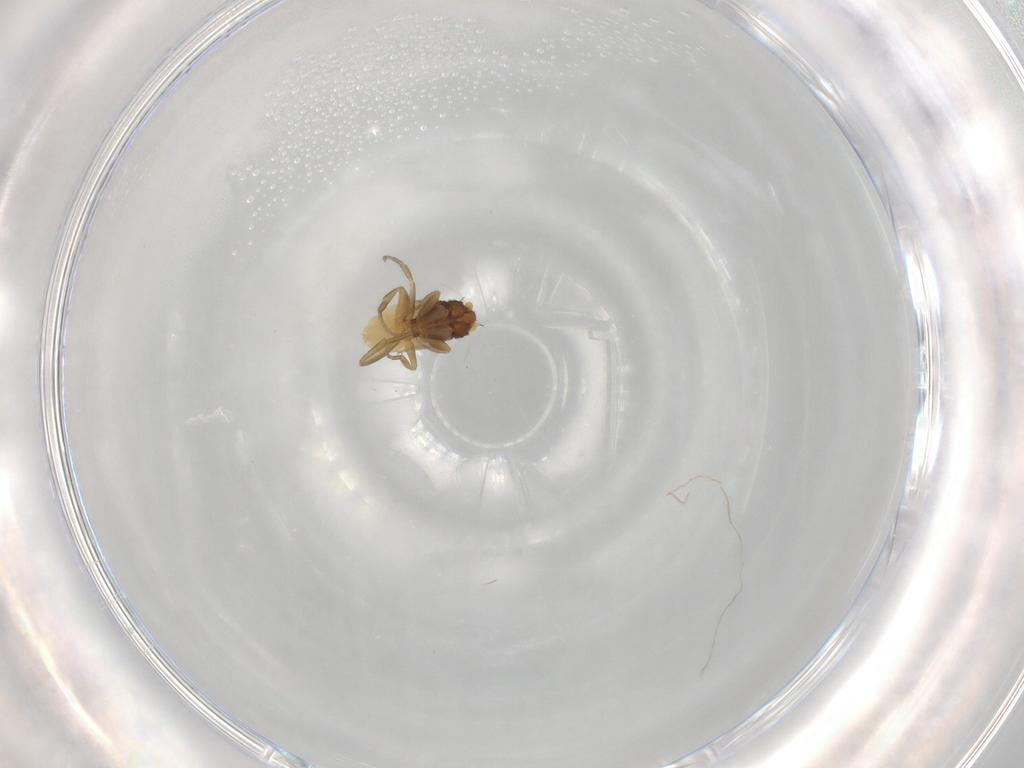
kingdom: Animalia
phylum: Arthropoda
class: Insecta
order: Diptera
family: Phoridae
